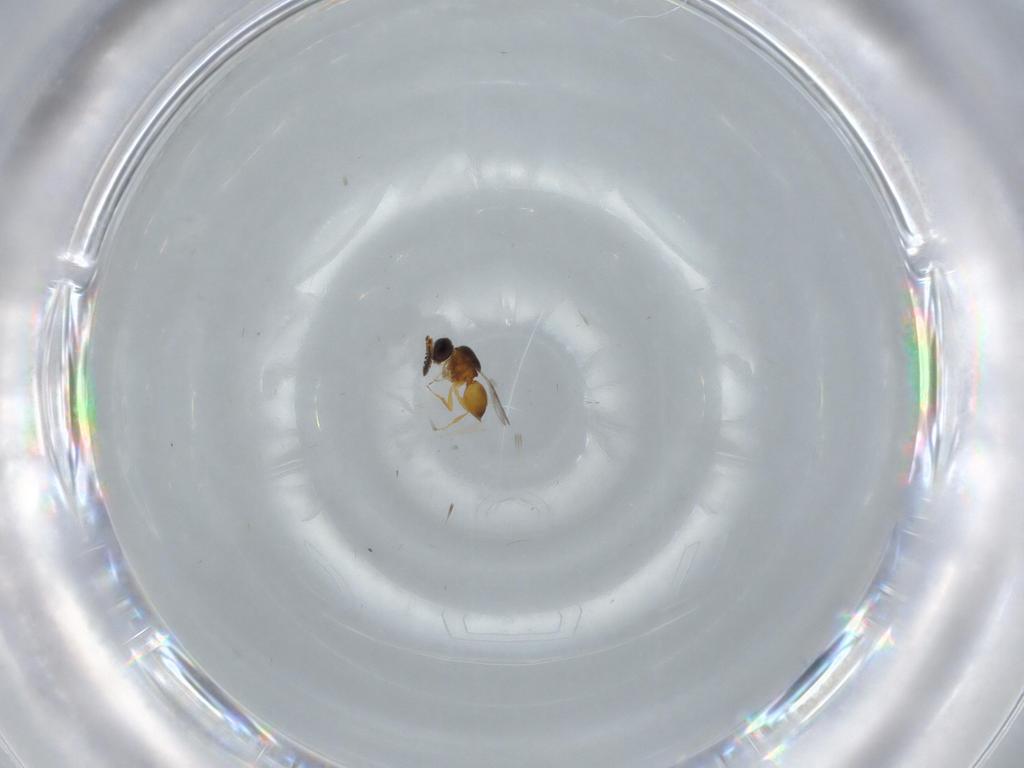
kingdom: Animalia
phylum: Arthropoda
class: Insecta
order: Hymenoptera
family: Ceraphronidae
